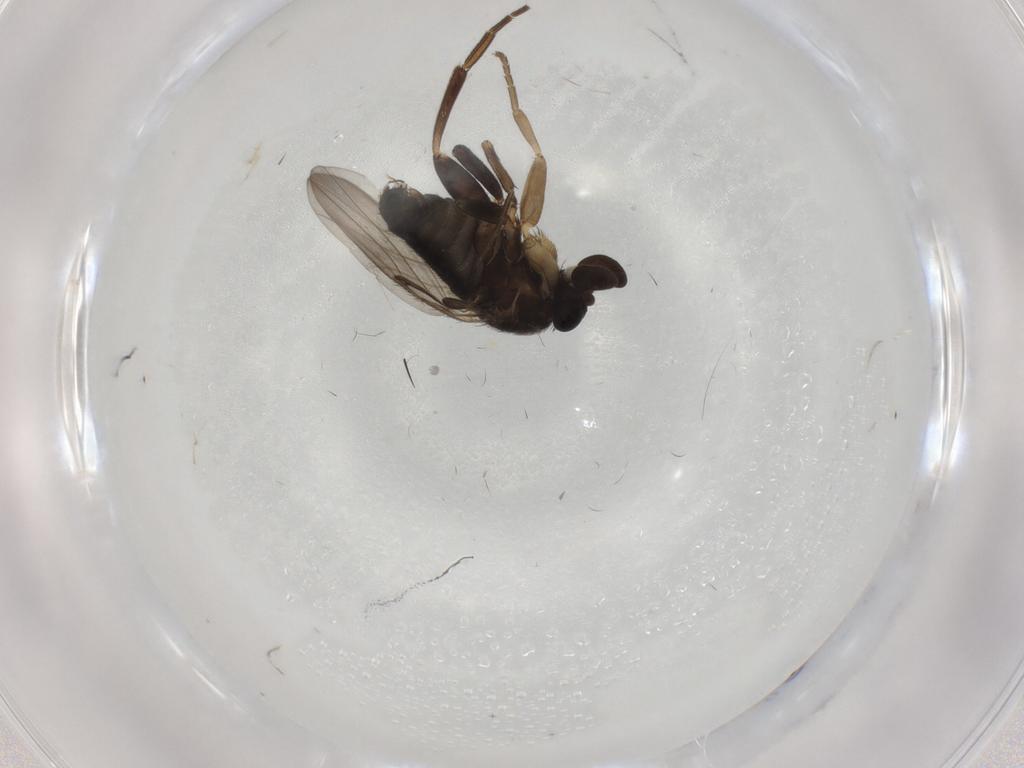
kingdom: Animalia
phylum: Arthropoda
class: Insecta
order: Diptera
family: Phoridae
